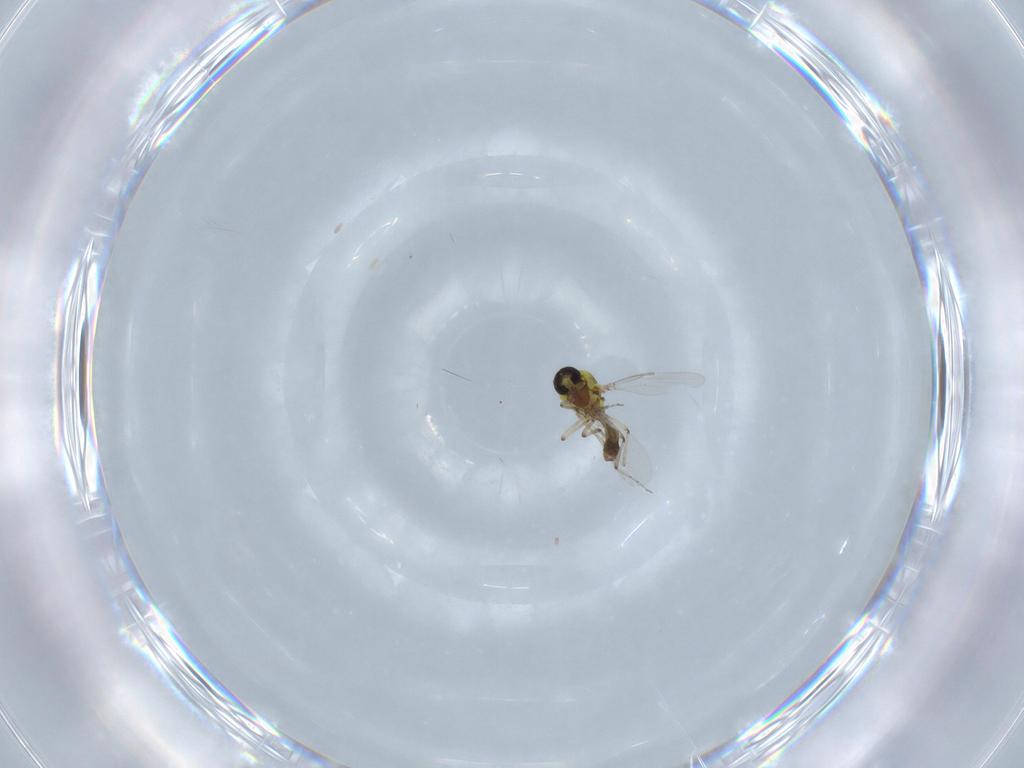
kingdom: Animalia
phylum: Arthropoda
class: Insecta
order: Diptera
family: Ceratopogonidae
